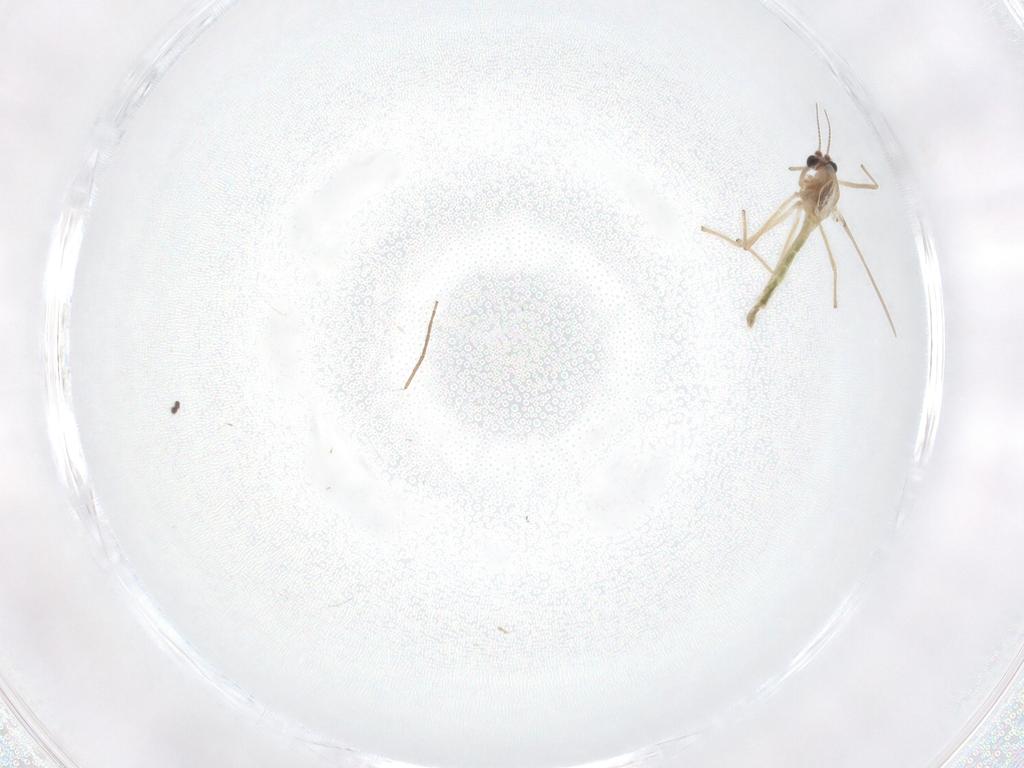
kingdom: Animalia
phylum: Arthropoda
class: Insecta
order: Diptera
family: Chironomidae
